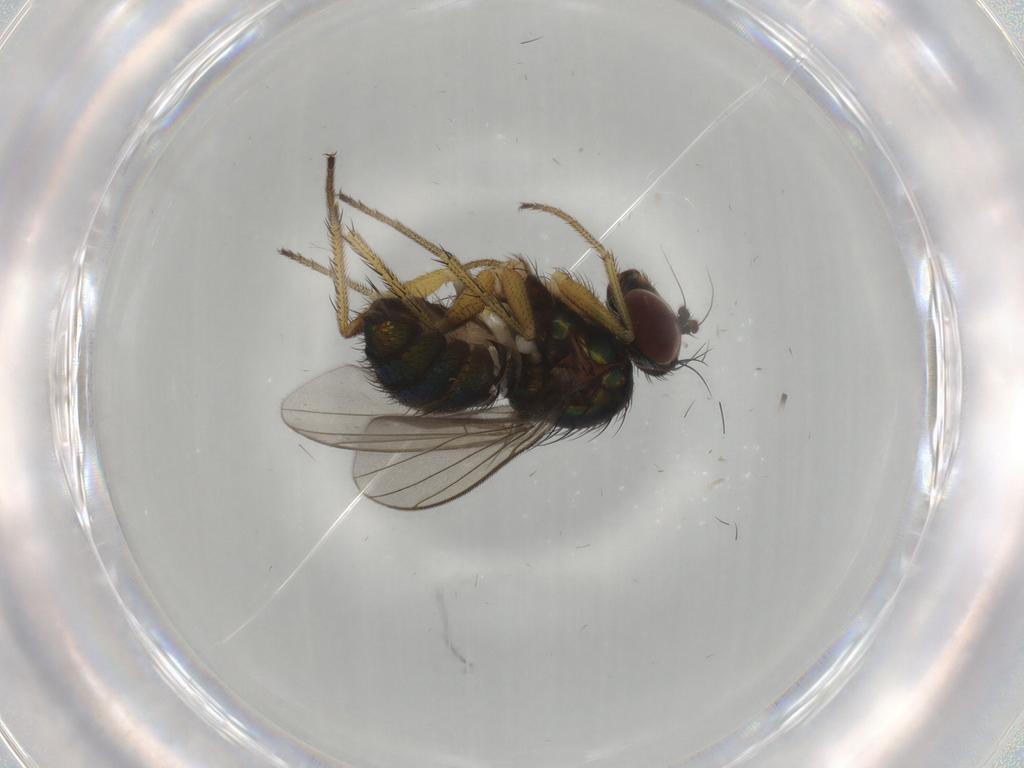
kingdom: Animalia
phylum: Arthropoda
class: Insecta
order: Diptera
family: Dolichopodidae
